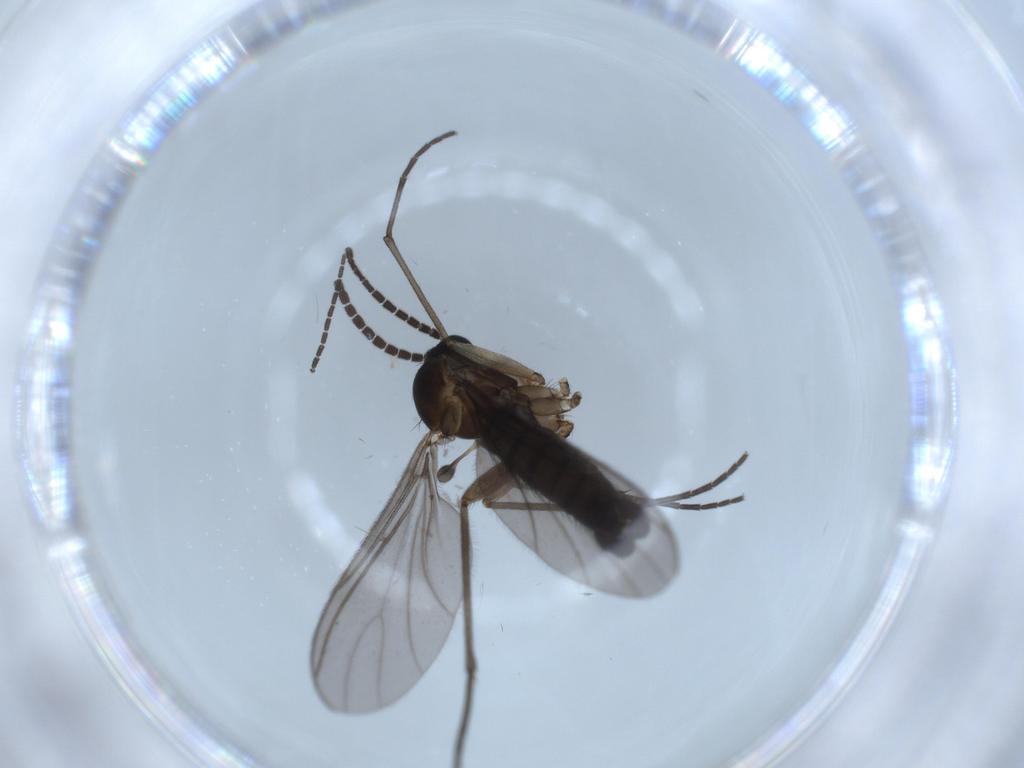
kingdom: Animalia
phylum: Arthropoda
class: Insecta
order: Diptera
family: Sciaridae
